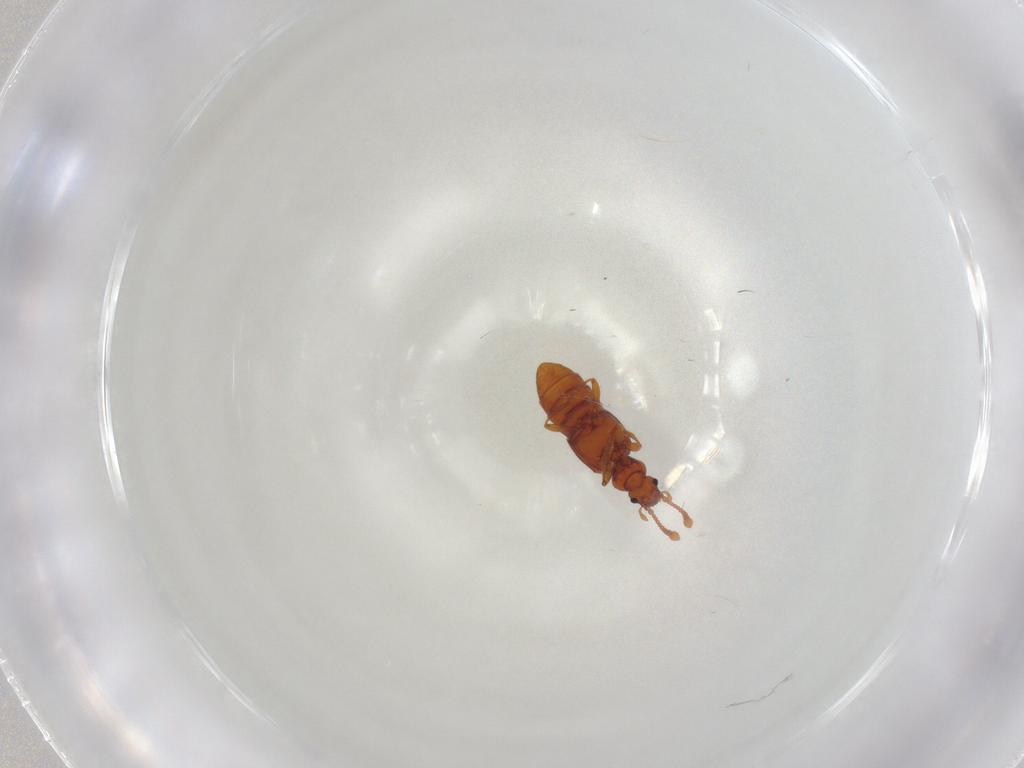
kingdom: Animalia
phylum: Arthropoda
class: Insecta
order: Coleoptera
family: Staphylinidae
